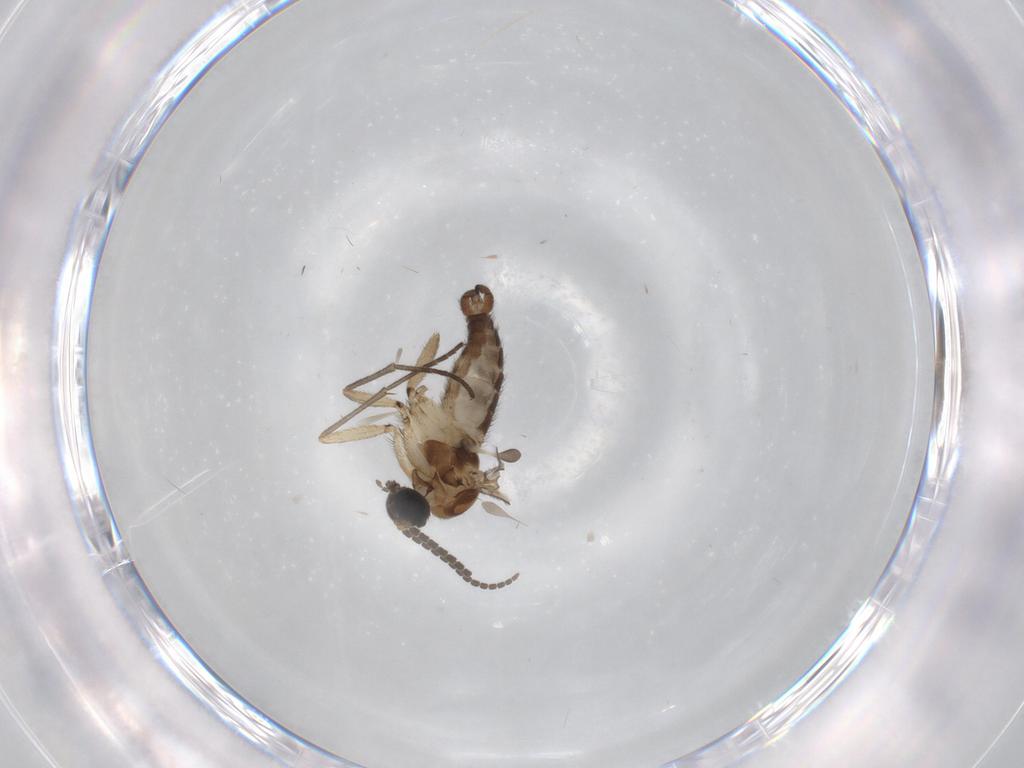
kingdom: Animalia
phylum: Arthropoda
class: Insecta
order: Diptera
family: Sciaridae
